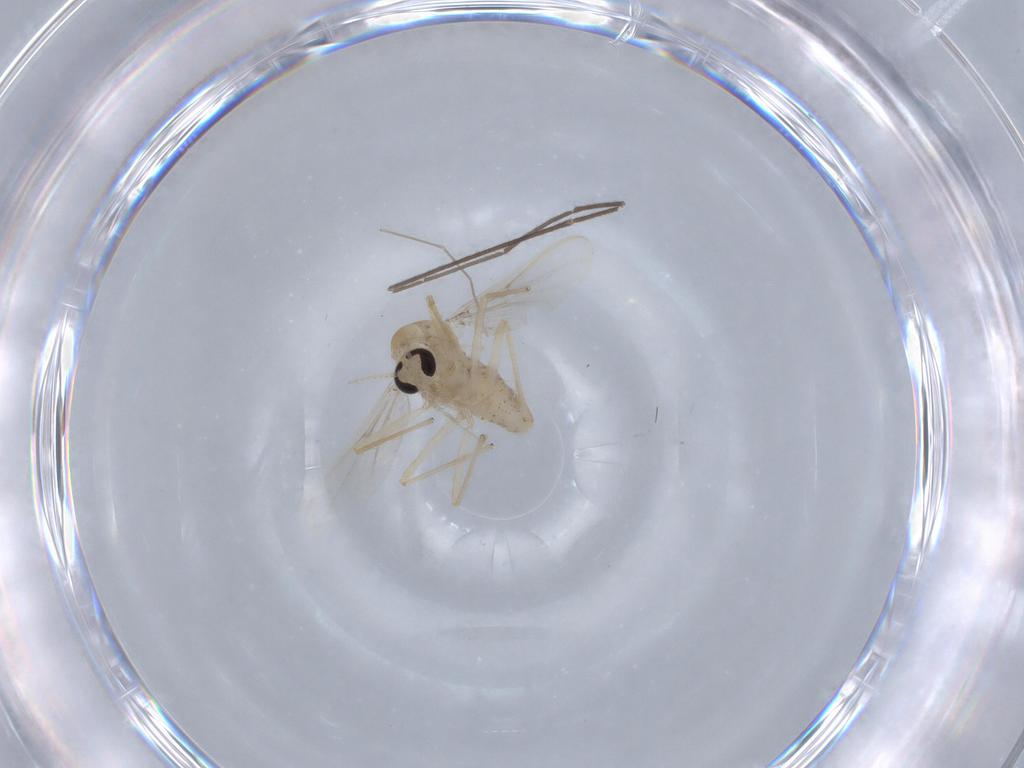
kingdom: Animalia
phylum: Arthropoda
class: Insecta
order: Diptera
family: Chironomidae
